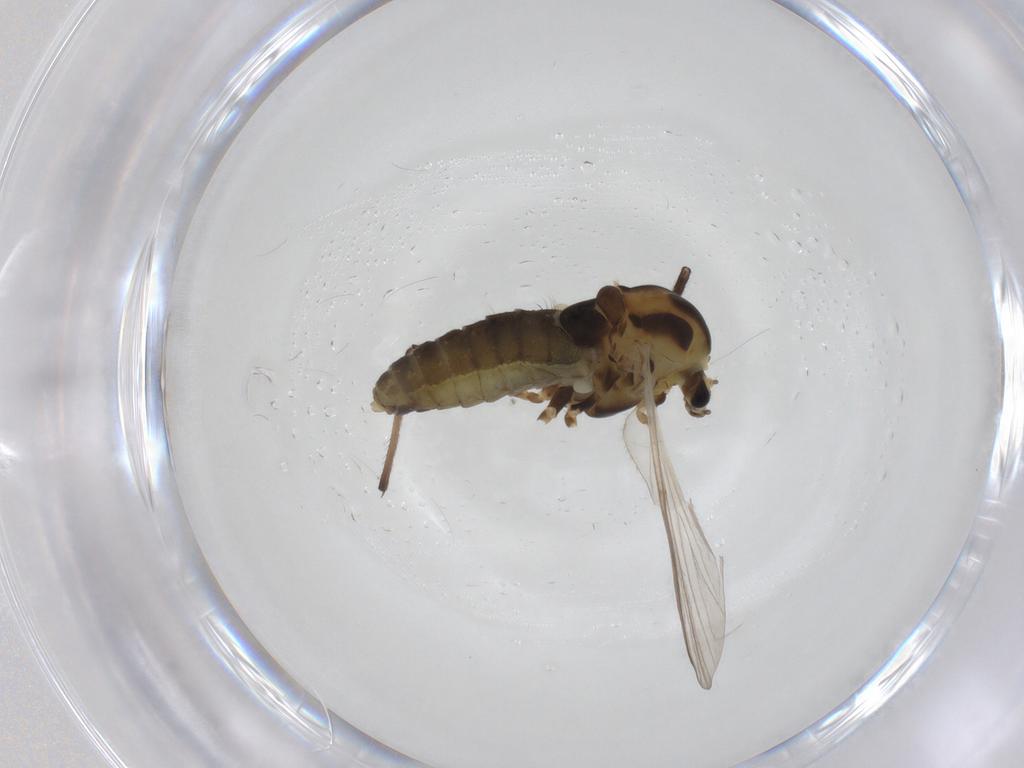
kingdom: Animalia
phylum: Arthropoda
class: Insecta
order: Diptera
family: Chironomidae
